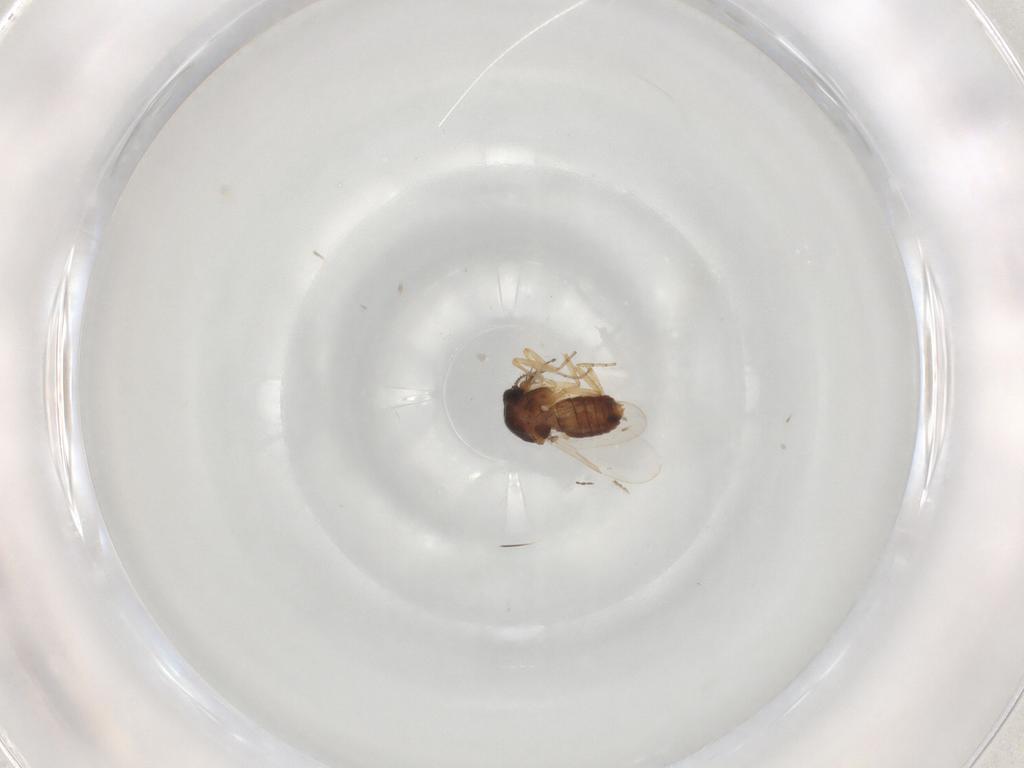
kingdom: Animalia
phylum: Arthropoda
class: Insecta
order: Diptera
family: Ceratopogonidae
